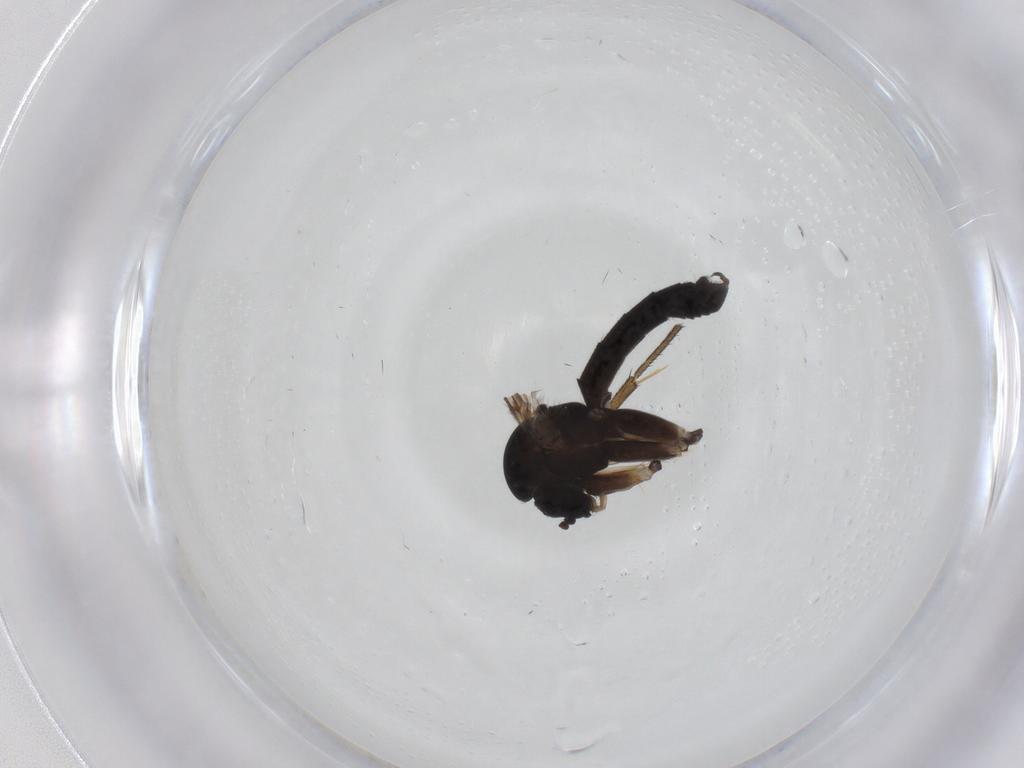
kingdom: Animalia
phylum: Arthropoda
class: Insecta
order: Diptera
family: Mycetophilidae
